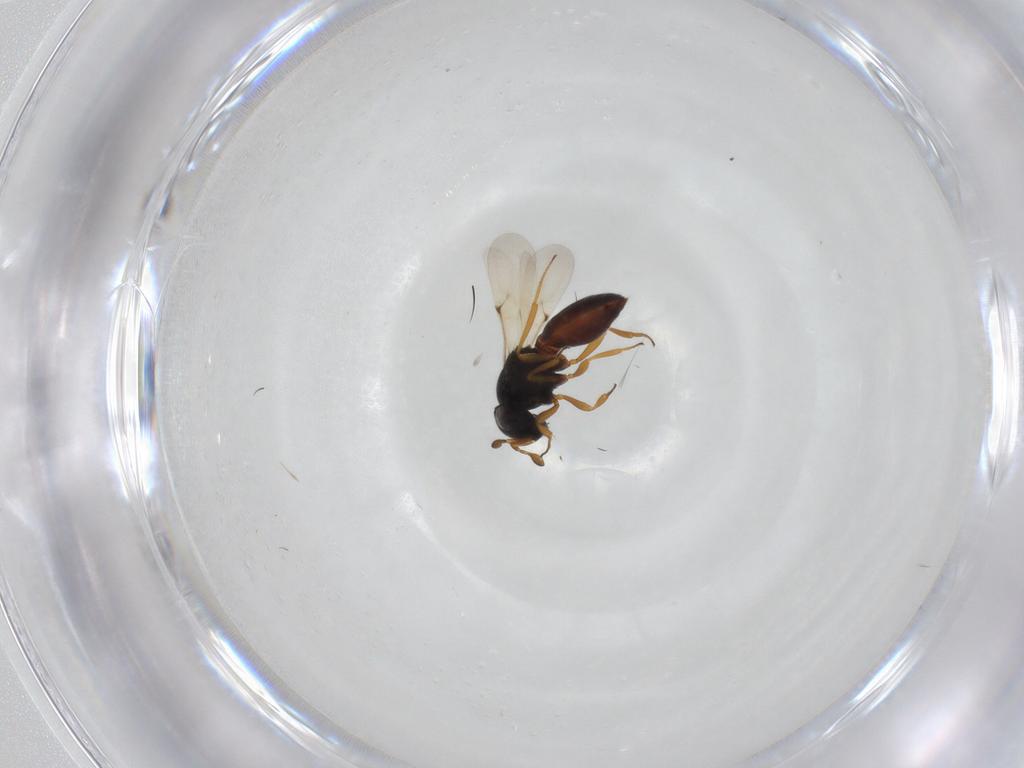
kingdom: Animalia
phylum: Arthropoda
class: Insecta
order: Hymenoptera
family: Scelionidae
